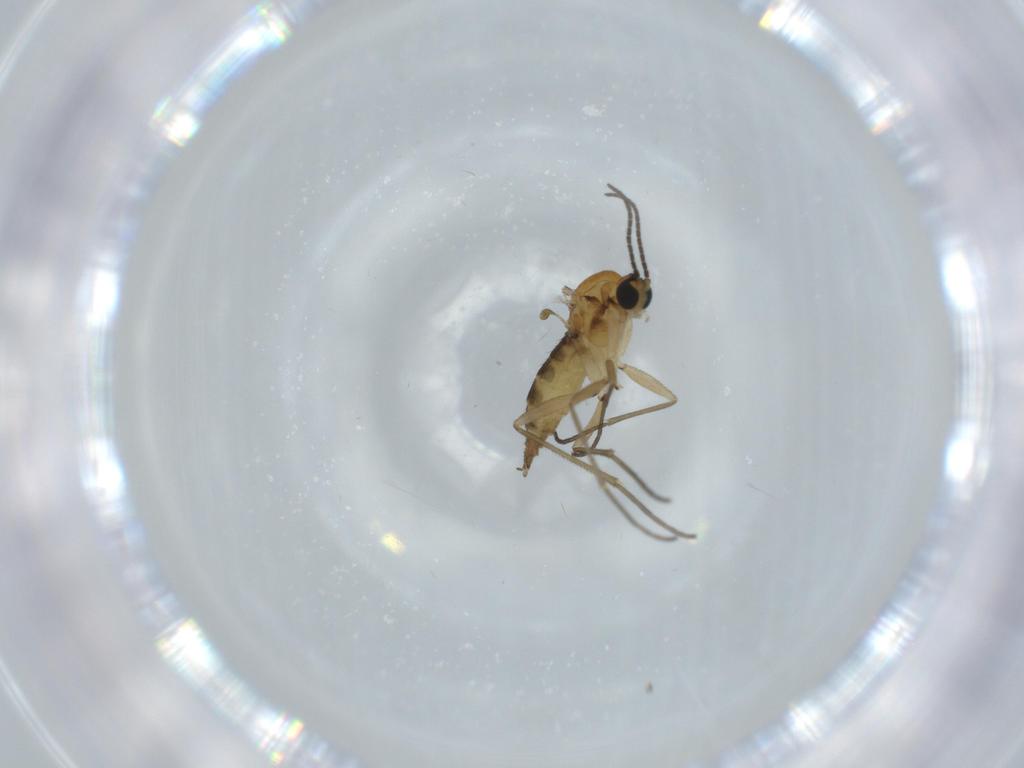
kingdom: Animalia
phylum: Arthropoda
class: Insecta
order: Diptera
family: Sciaridae
